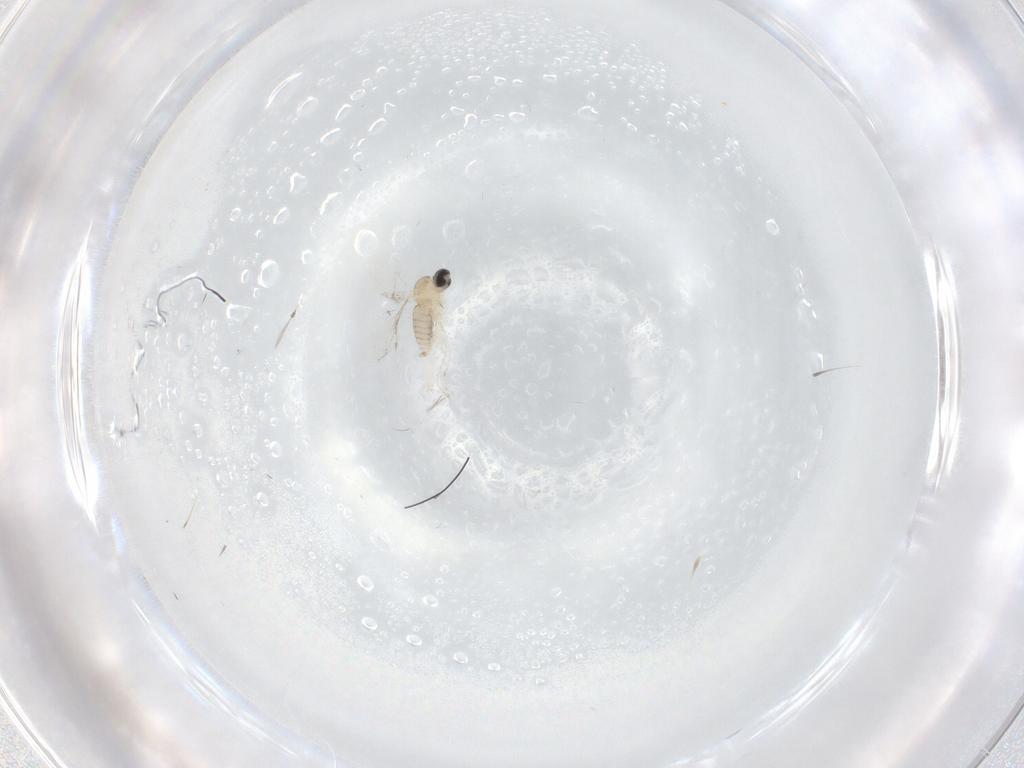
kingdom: Animalia
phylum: Arthropoda
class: Insecta
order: Diptera
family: Cecidomyiidae
